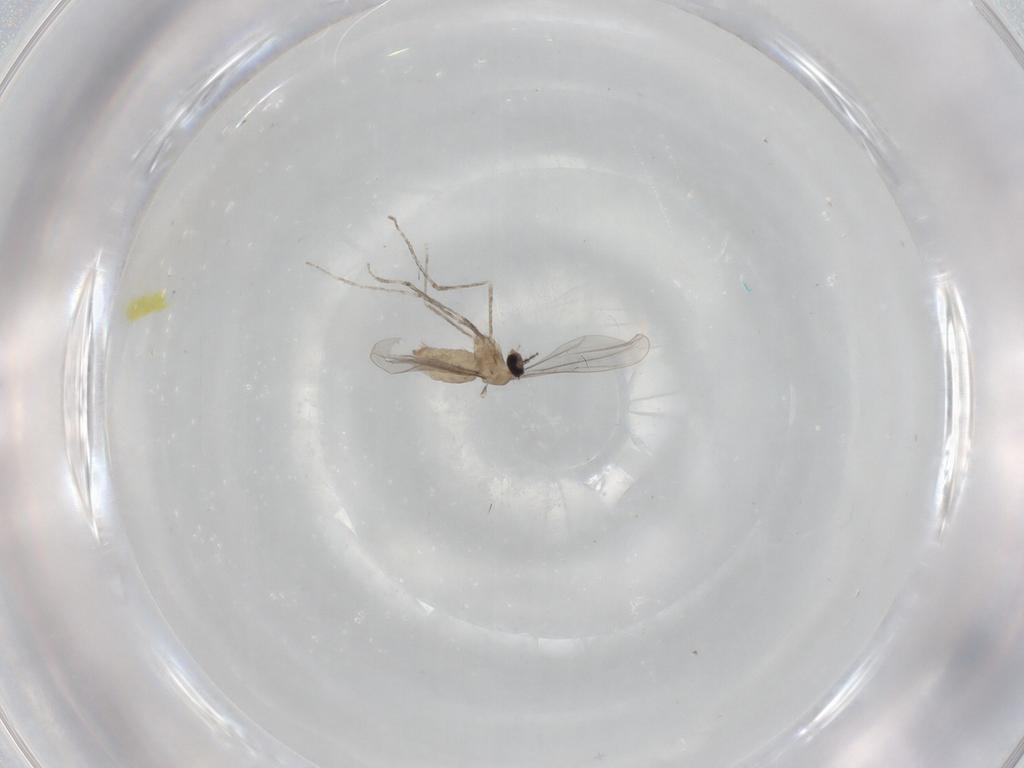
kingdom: Animalia
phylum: Arthropoda
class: Insecta
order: Diptera
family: Cecidomyiidae
